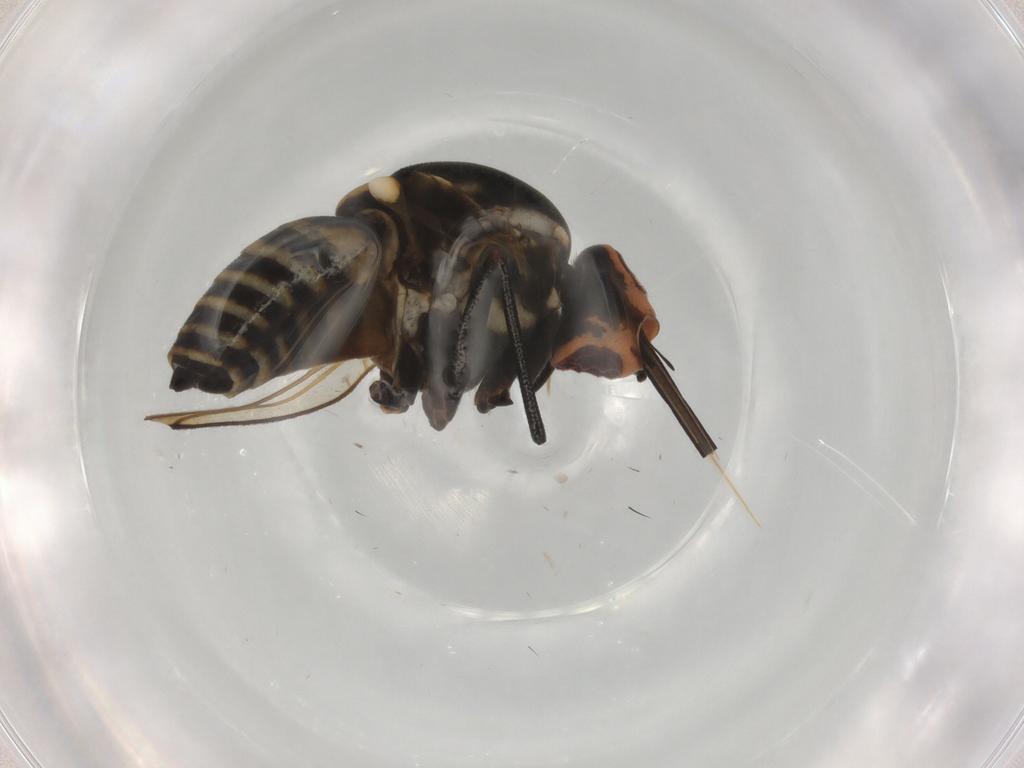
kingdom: Animalia
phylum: Arthropoda
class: Insecta
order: Diptera
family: Bombyliidae
